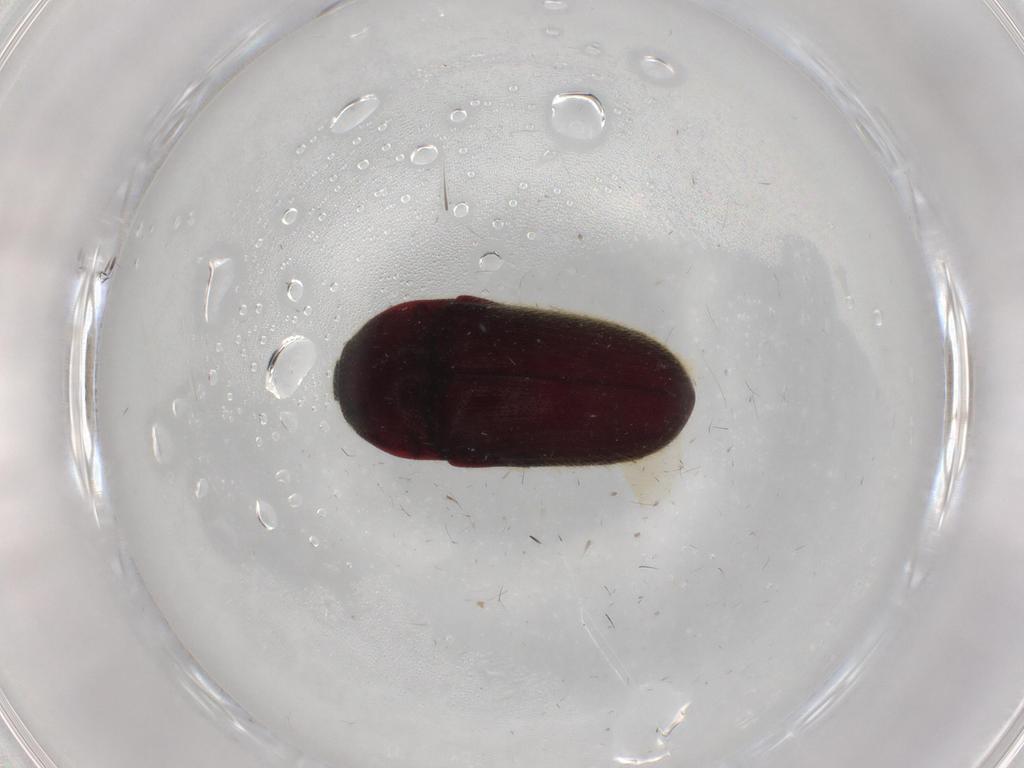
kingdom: Animalia
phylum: Arthropoda
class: Insecta
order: Coleoptera
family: Throscidae
